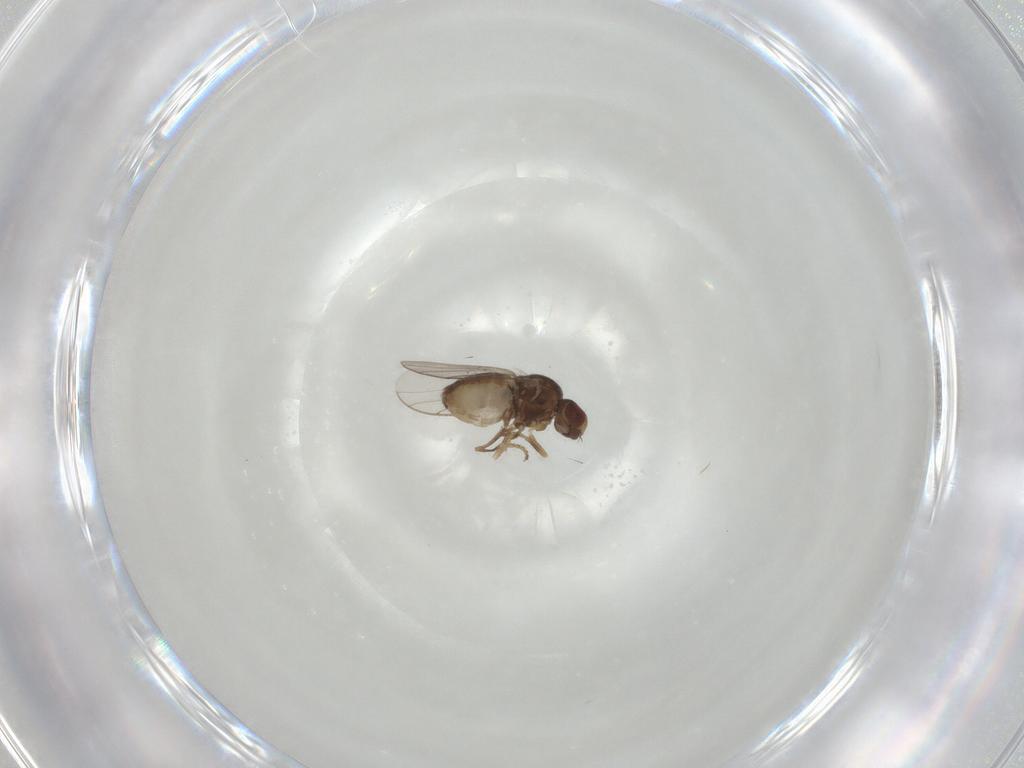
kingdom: Animalia
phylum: Arthropoda
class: Insecta
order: Diptera
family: Chloropidae
